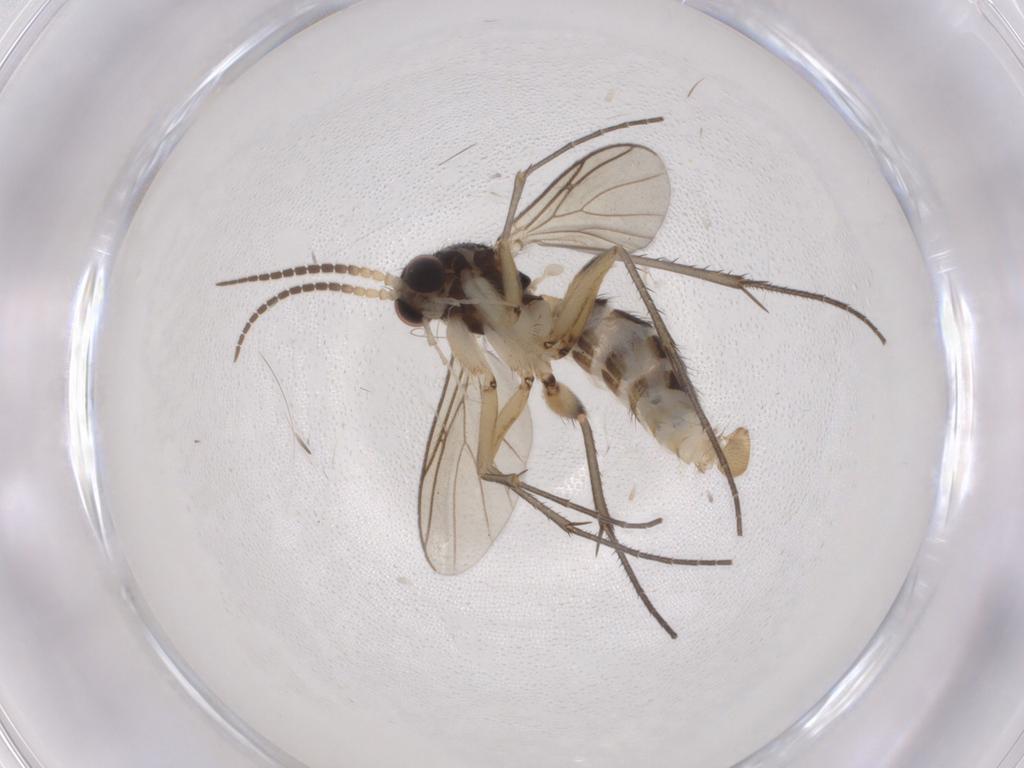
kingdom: Animalia
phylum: Arthropoda
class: Insecta
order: Diptera
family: Mycetophilidae
